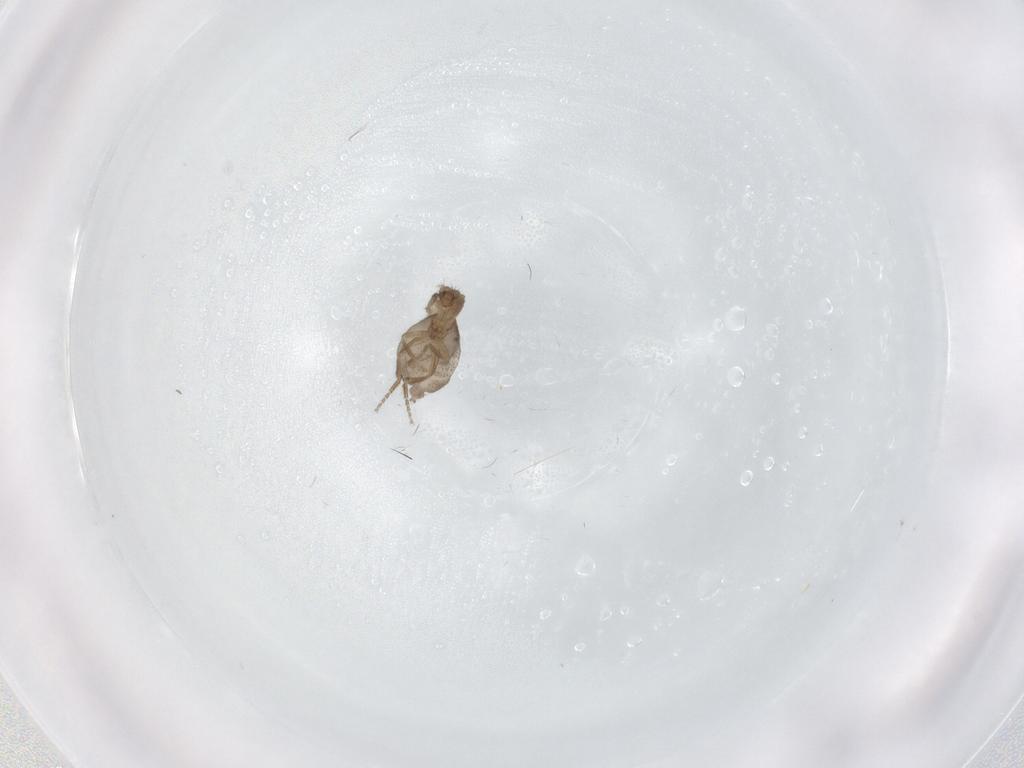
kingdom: Animalia
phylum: Arthropoda
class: Insecta
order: Diptera
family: Phoridae
